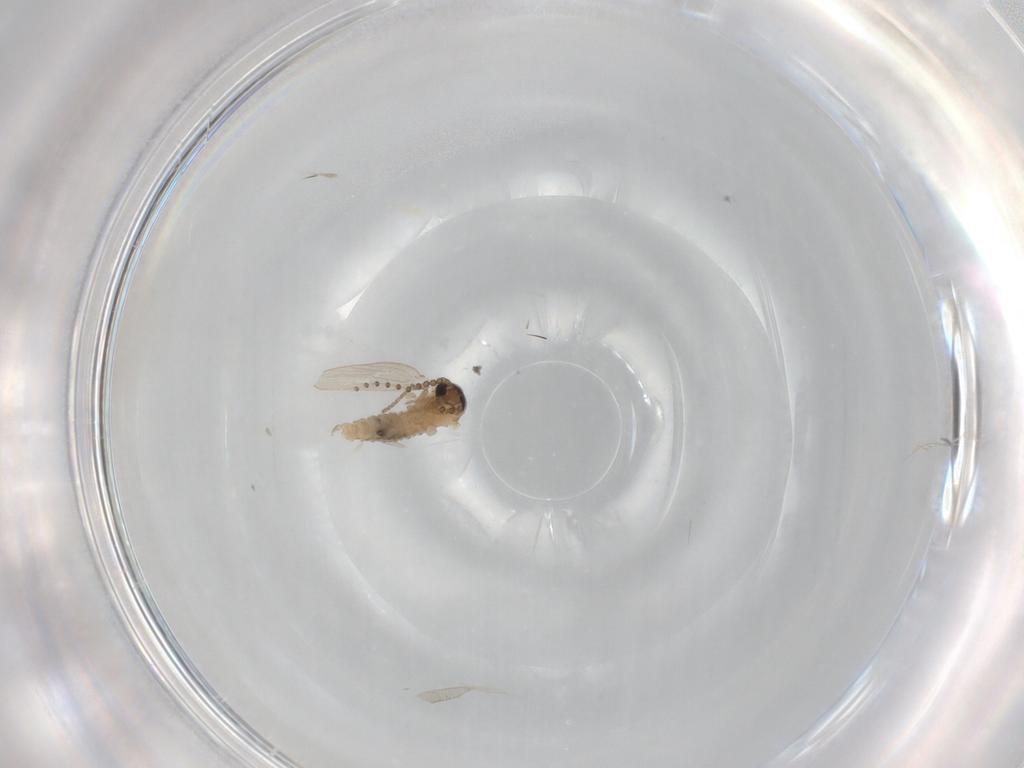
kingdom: Animalia
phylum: Arthropoda
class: Insecta
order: Diptera
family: Psychodidae
